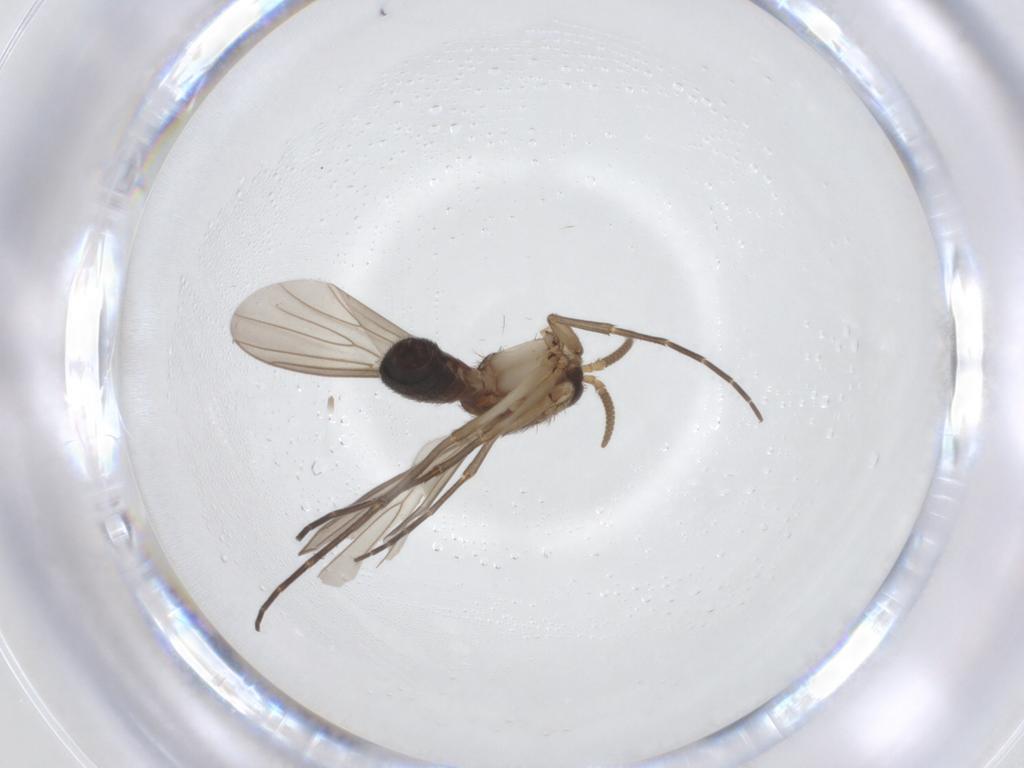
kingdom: Animalia
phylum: Arthropoda
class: Insecta
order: Diptera
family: Mycetophilidae
